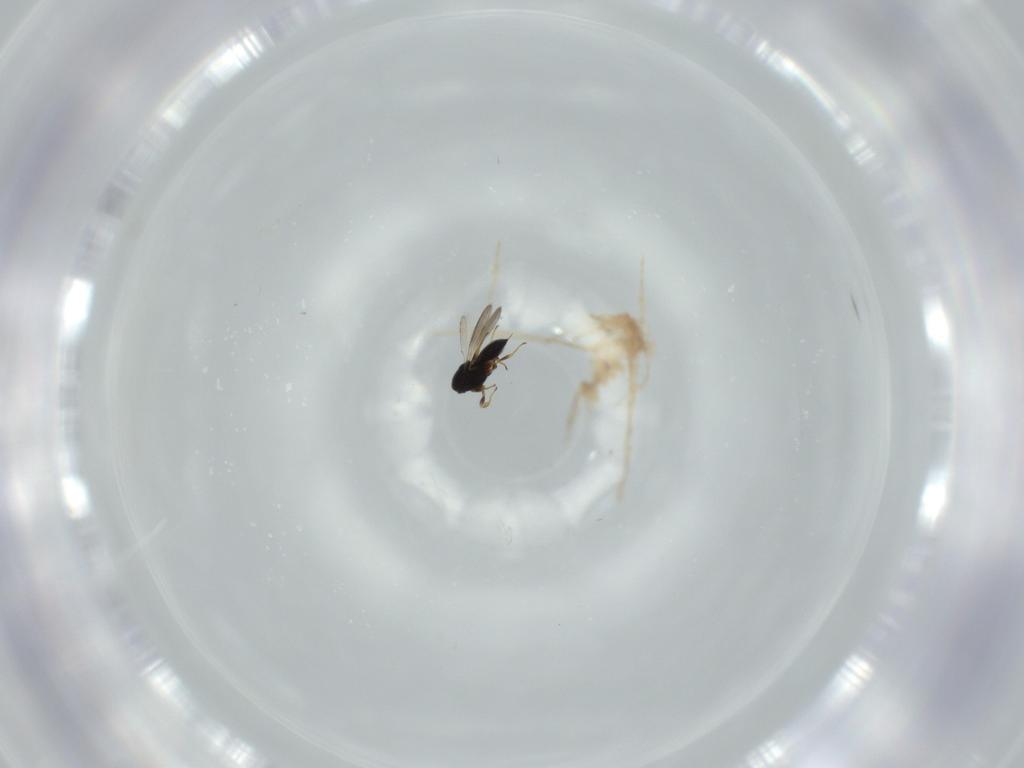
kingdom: Animalia
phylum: Arthropoda
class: Insecta
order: Hymenoptera
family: Scelionidae
